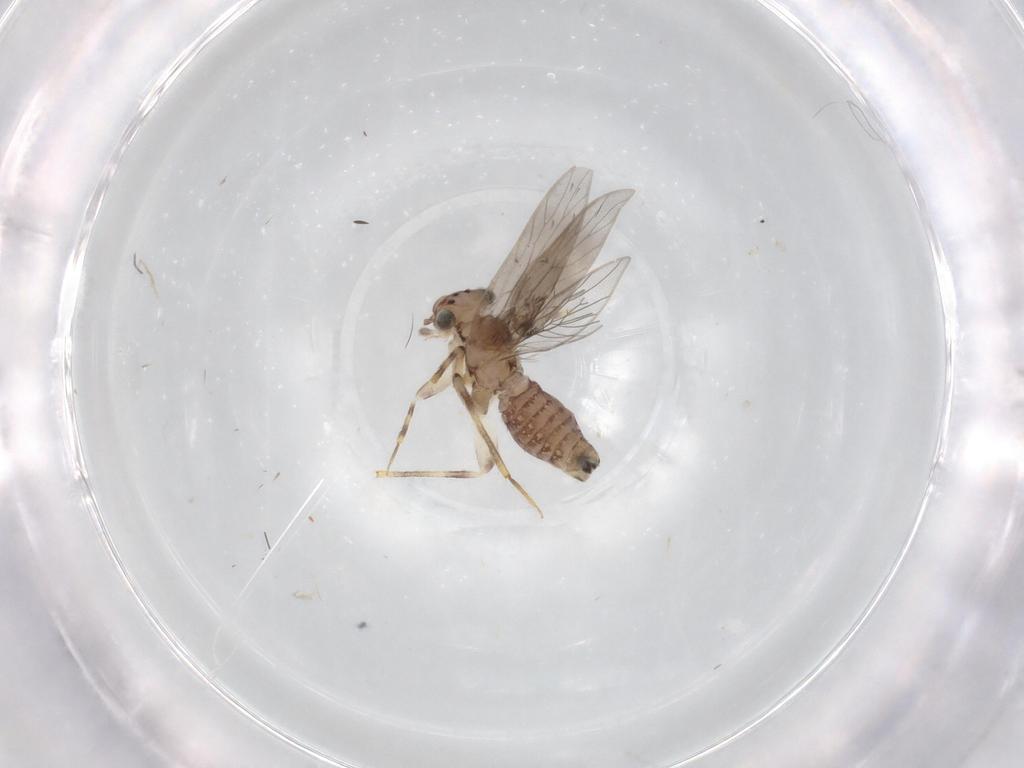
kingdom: Animalia
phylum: Arthropoda
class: Insecta
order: Psocodea
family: Lepidopsocidae
